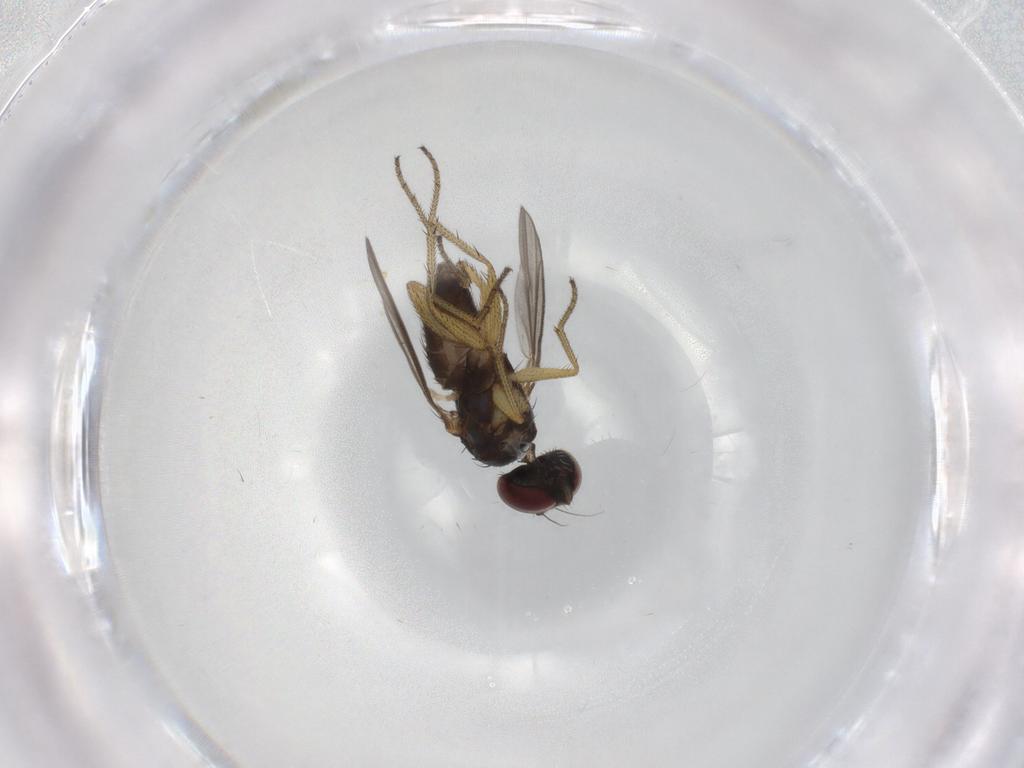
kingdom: Animalia
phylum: Arthropoda
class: Insecta
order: Diptera
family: Dolichopodidae
